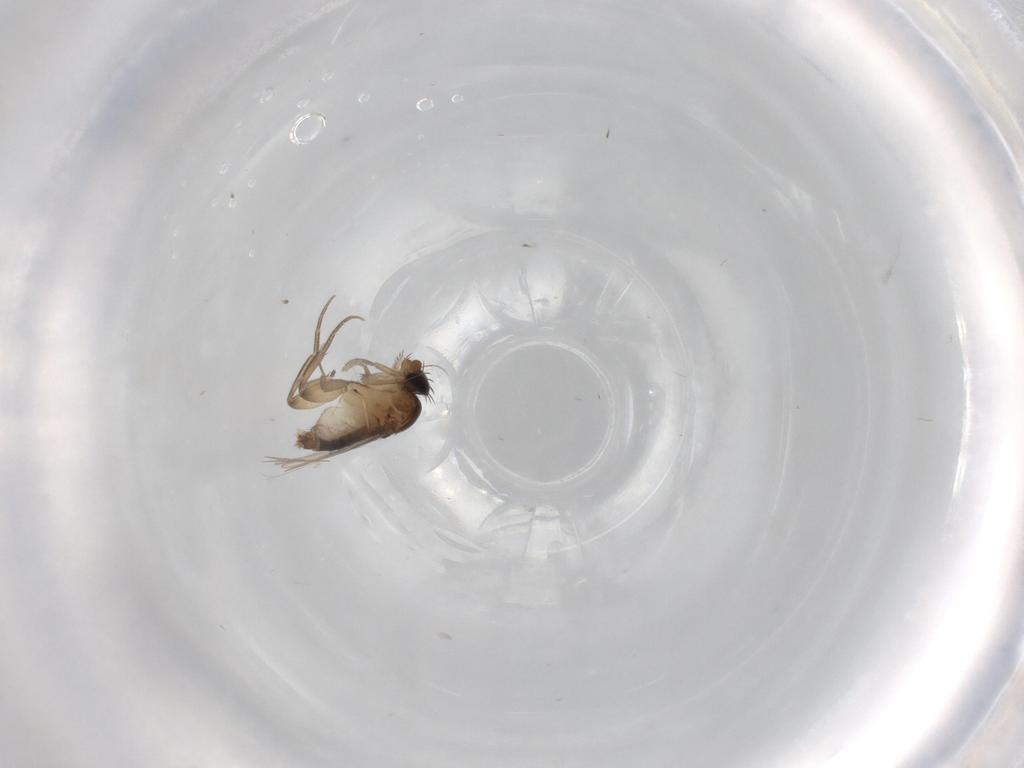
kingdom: Animalia
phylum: Arthropoda
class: Insecta
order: Diptera
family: Phoridae
